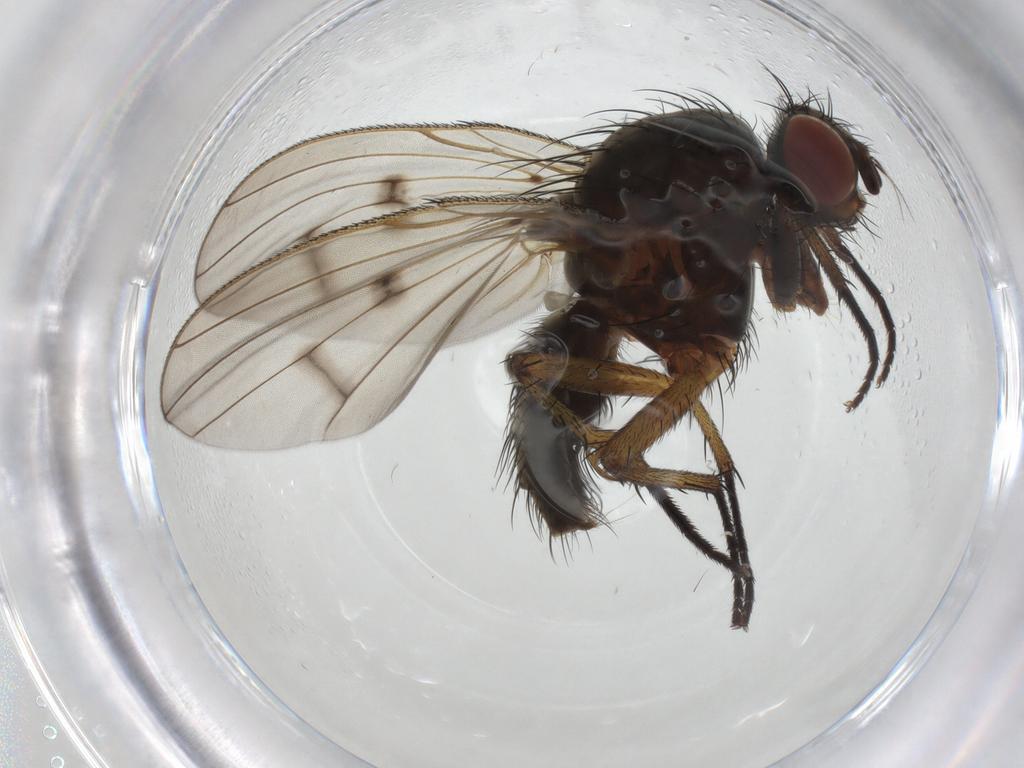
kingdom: Animalia
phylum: Arthropoda
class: Insecta
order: Diptera
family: Anthomyiidae
